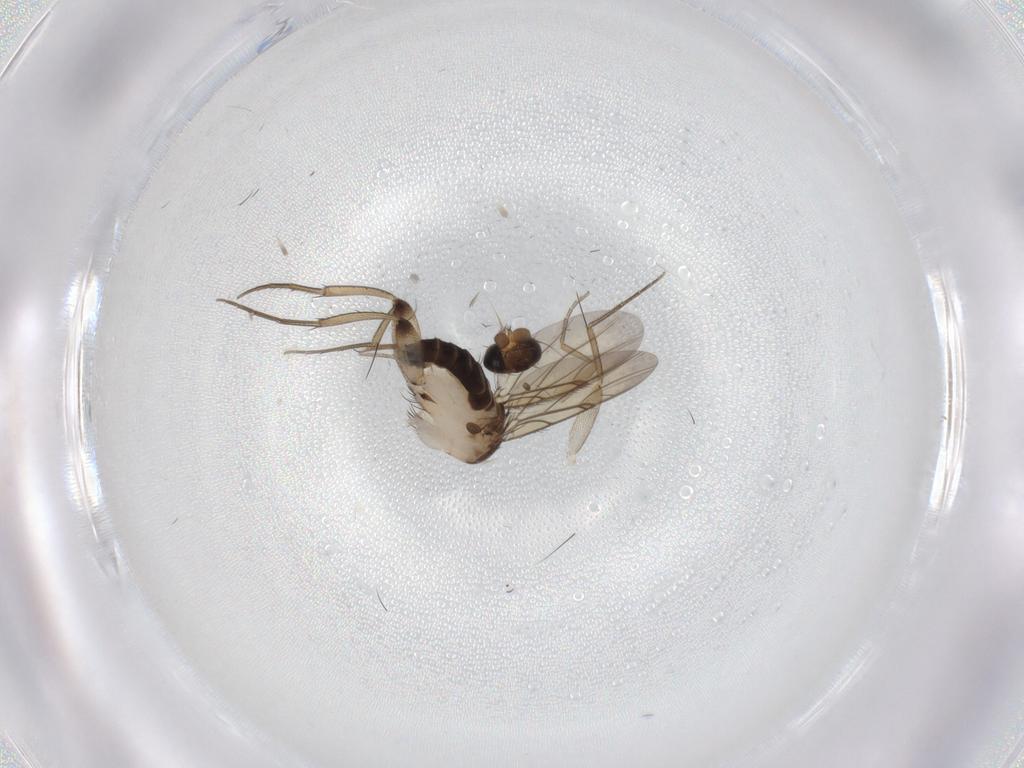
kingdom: Animalia
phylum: Arthropoda
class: Insecta
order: Diptera
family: Phoridae
